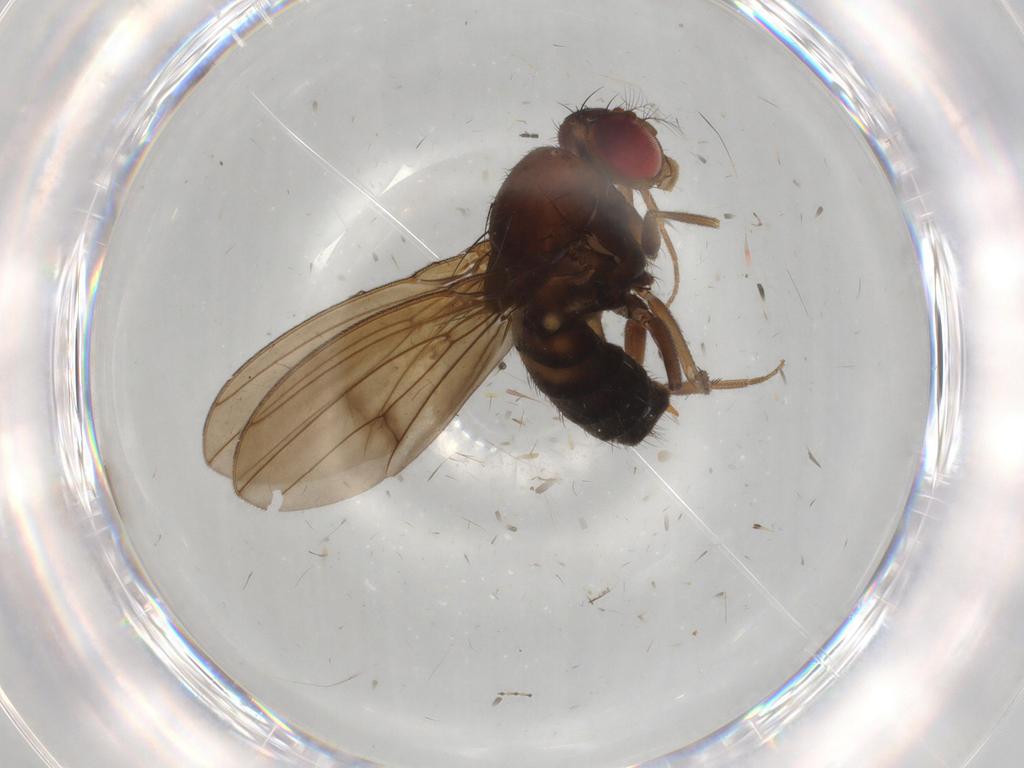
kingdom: Animalia
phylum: Arthropoda
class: Insecta
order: Diptera
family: Drosophilidae
